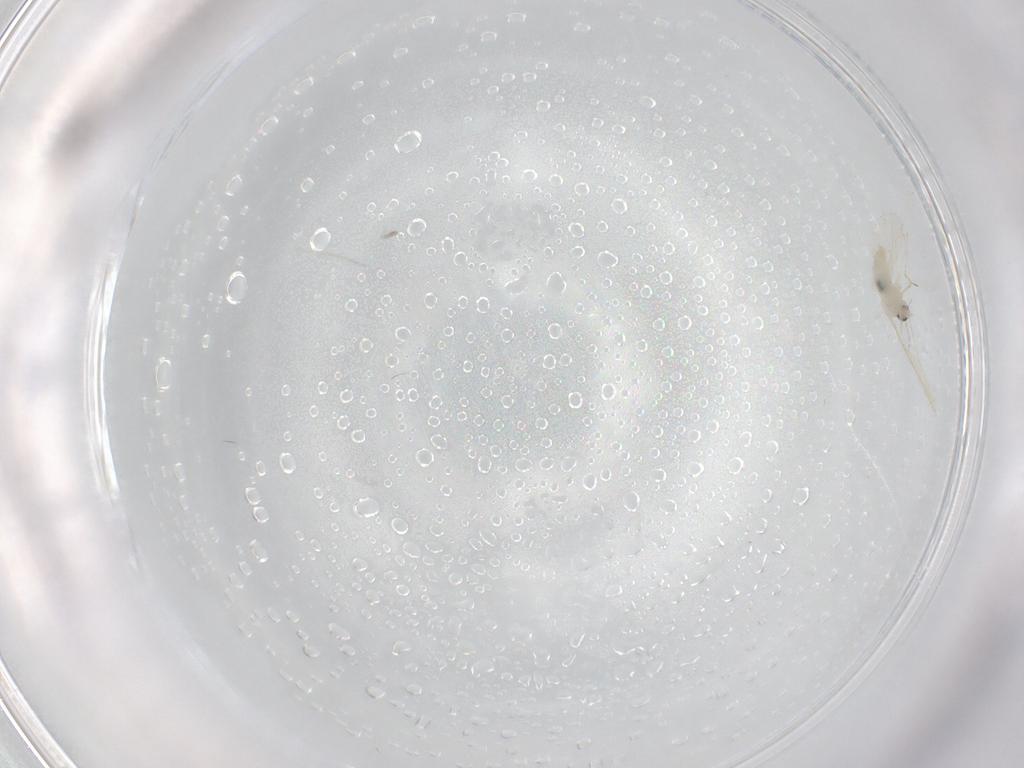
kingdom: Animalia
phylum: Arthropoda
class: Insecta
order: Diptera
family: Cecidomyiidae
